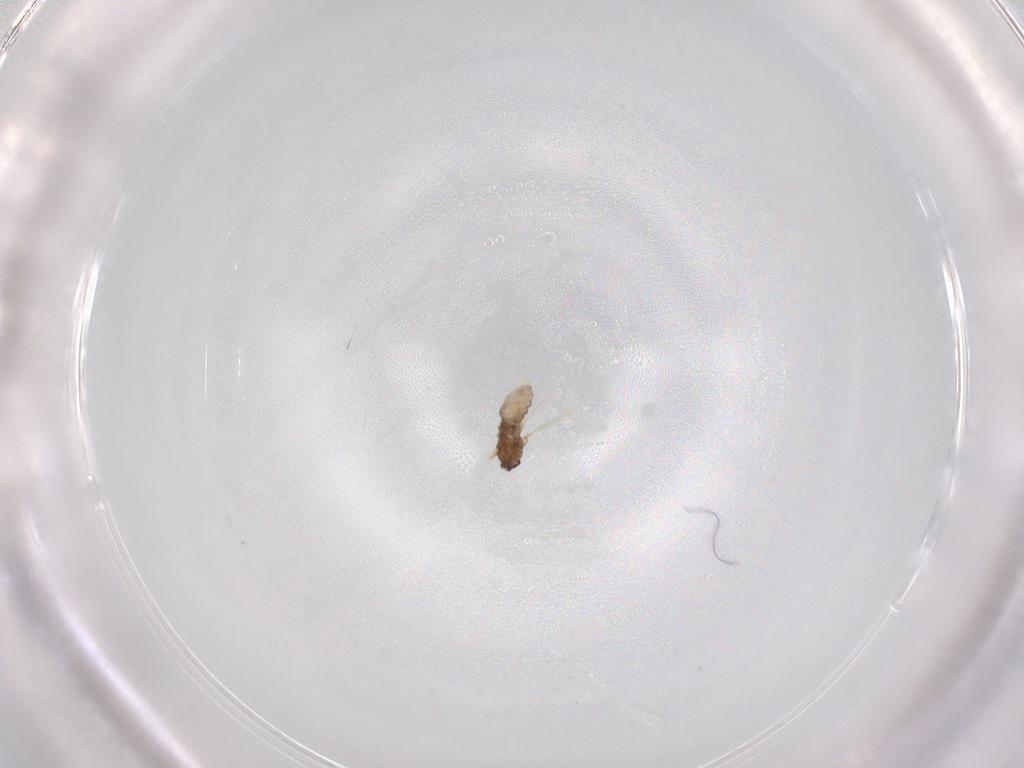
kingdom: Animalia
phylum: Arthropoda
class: Insecta
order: Diptera
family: Cecidomyiidae
